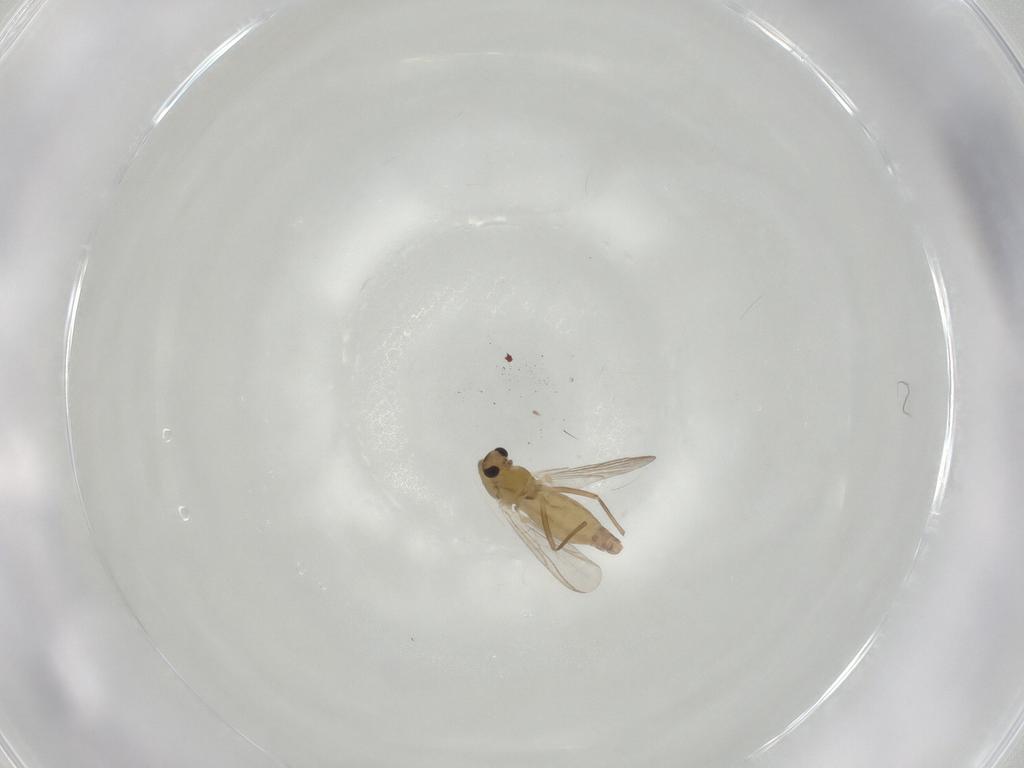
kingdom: Animalia
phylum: Arthropoda
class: Insecta
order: Diptera
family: Chironomidae
